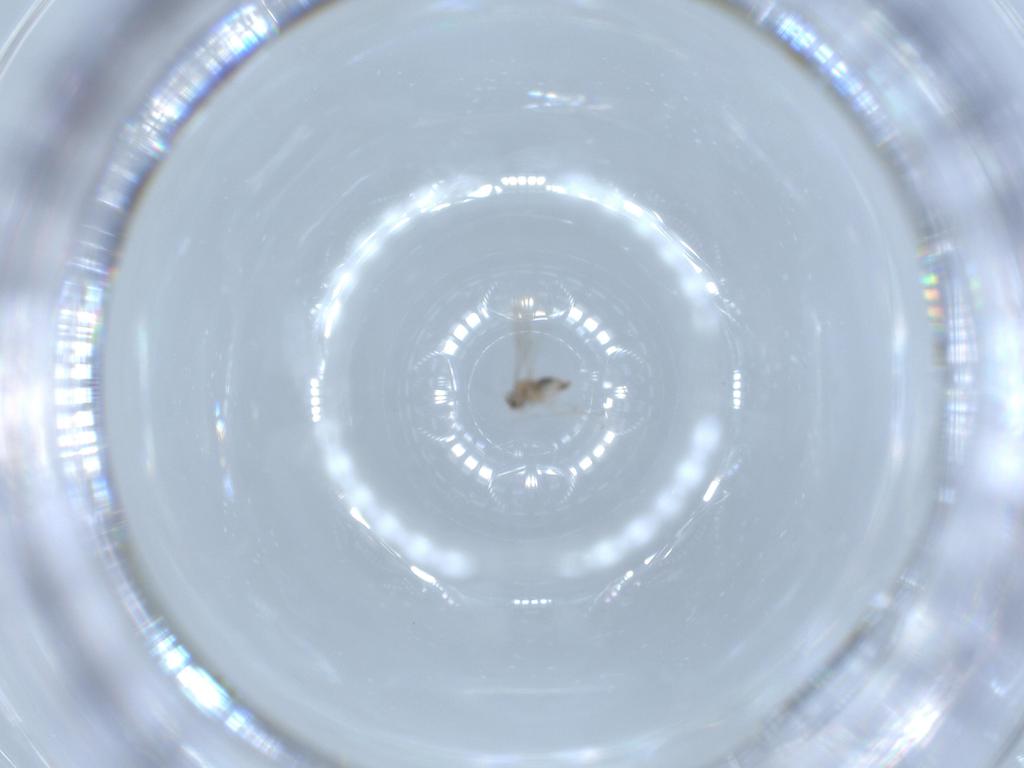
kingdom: Animalia
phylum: Arthropoda
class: Insecta
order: Diptera
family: Cecidomyiidae
